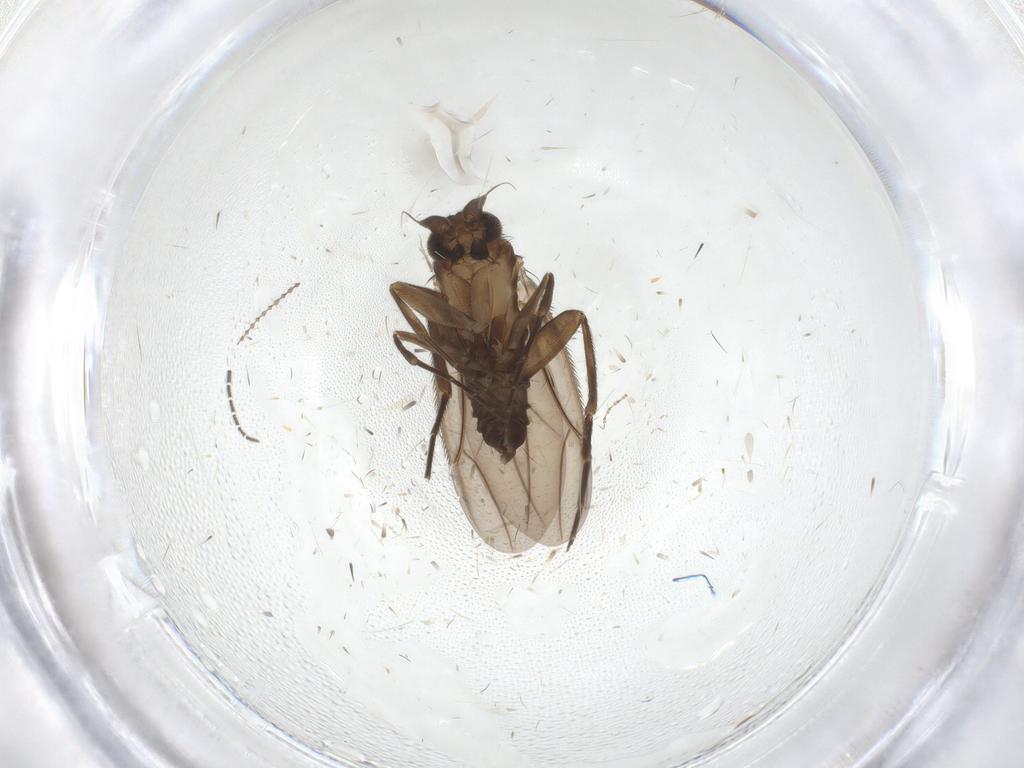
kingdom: Animalia
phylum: Arthropoda
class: Insecta
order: Diptera
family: Phoridae
